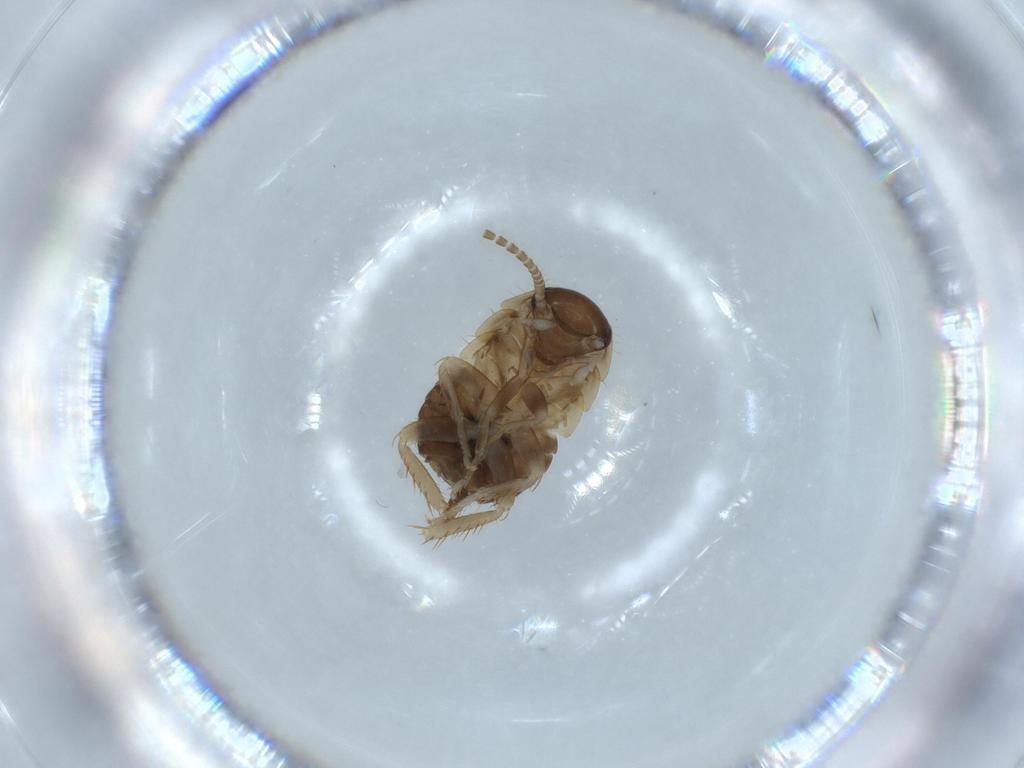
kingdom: Animalia
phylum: Arthropoda
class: Insecta
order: Blattodea
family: Ectobiidae
